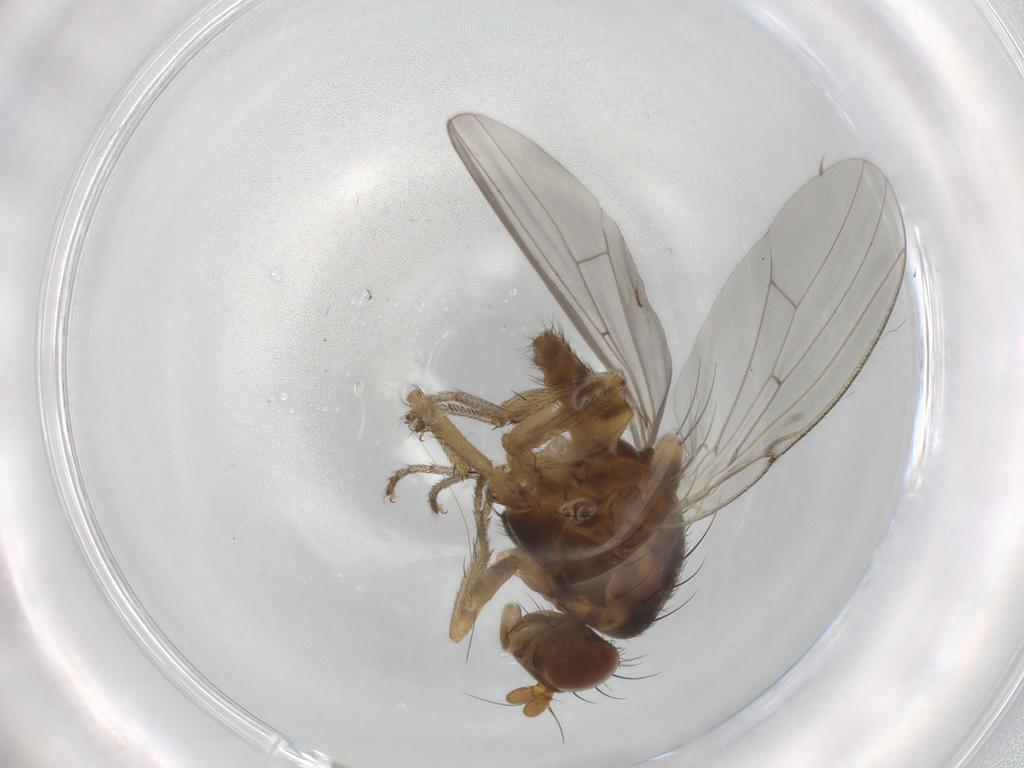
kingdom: Animalia
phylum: Arthropoda
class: Insecta
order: Diptera
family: Lauxaniidae
